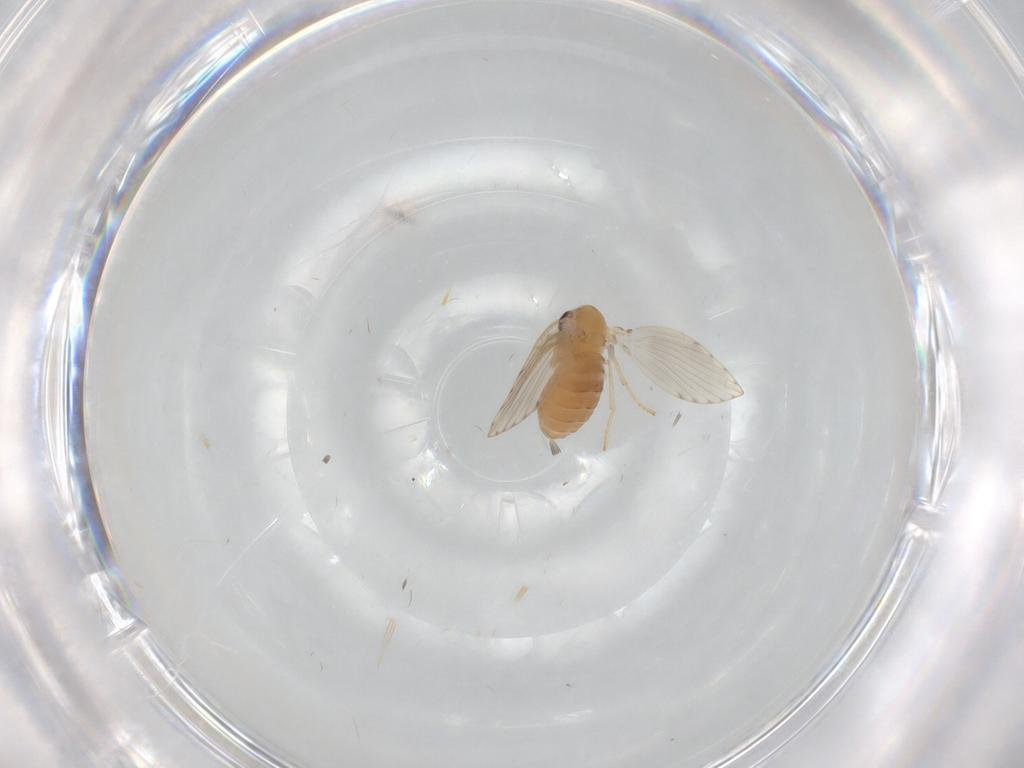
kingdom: Animalia
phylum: Arthropoda
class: Insecta
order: Diptera
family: Psychodidae
